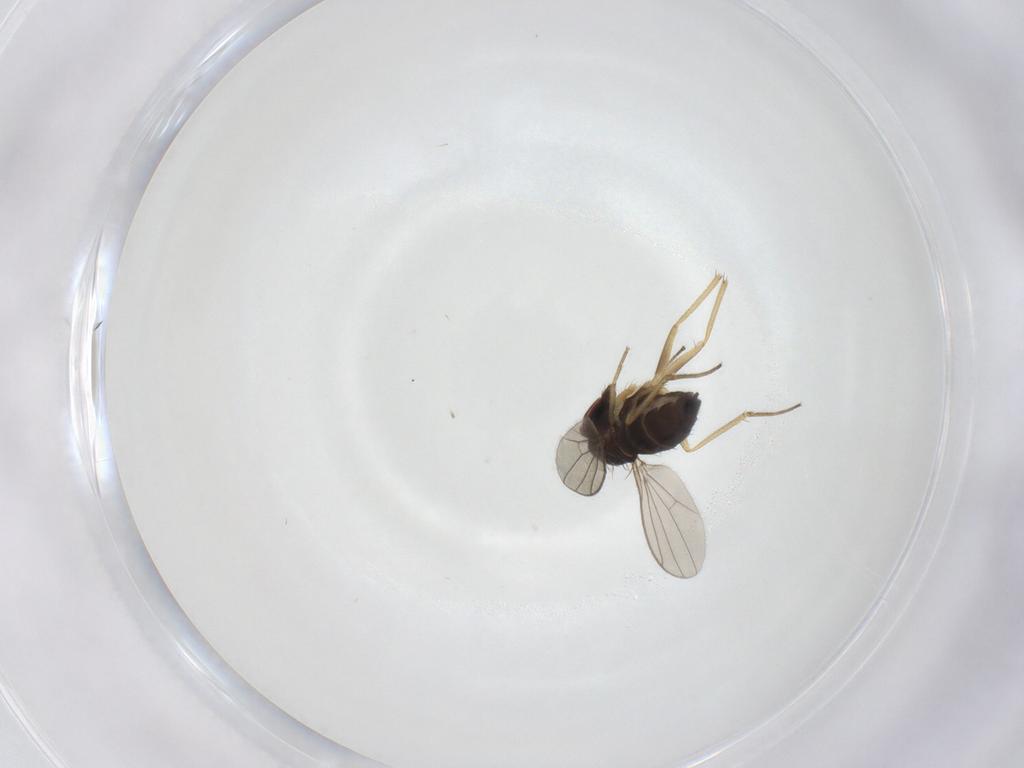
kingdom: Animalia
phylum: Arthropoda
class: Insecta
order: Diptera
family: Dolichopodidae
